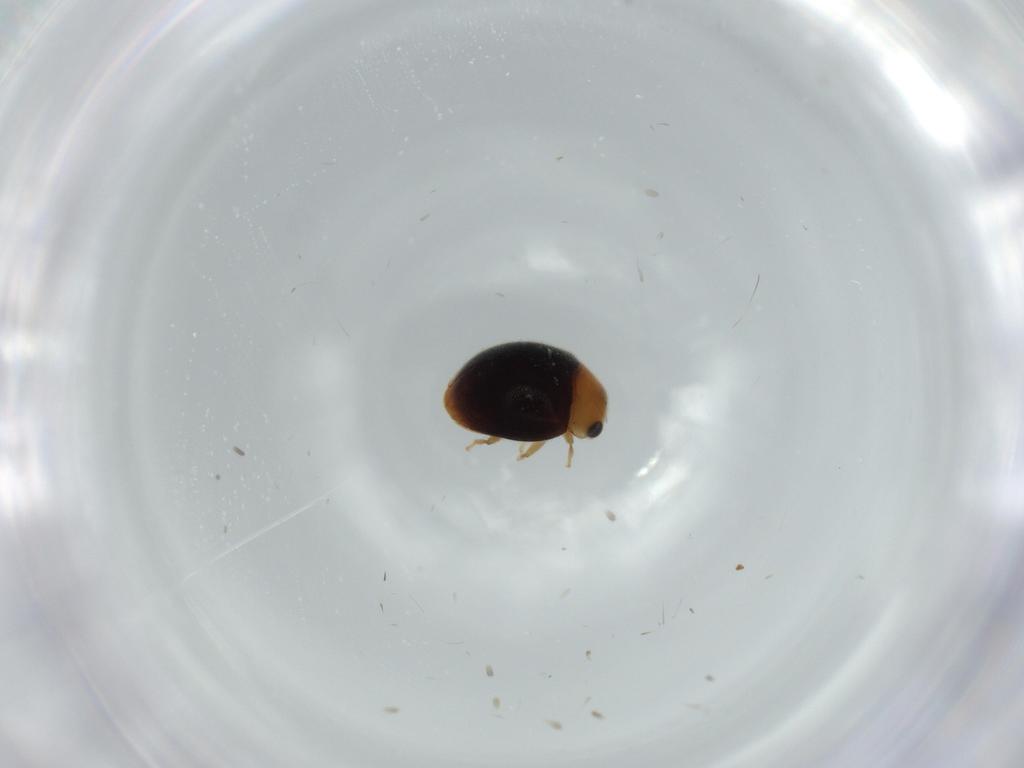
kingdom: Animalia
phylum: Arthropoda
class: Insecta
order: Coleoptera
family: Coccinellidae
